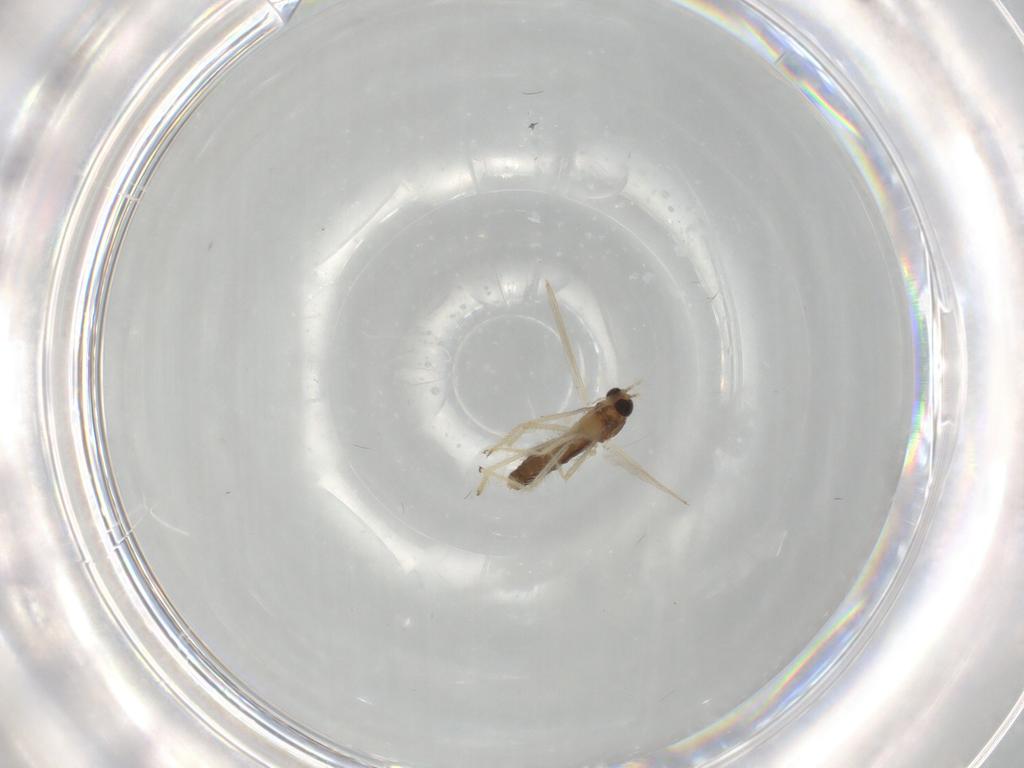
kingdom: Animalia
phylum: Arthropoda
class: Insecta
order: Diptera
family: Chironomidae
